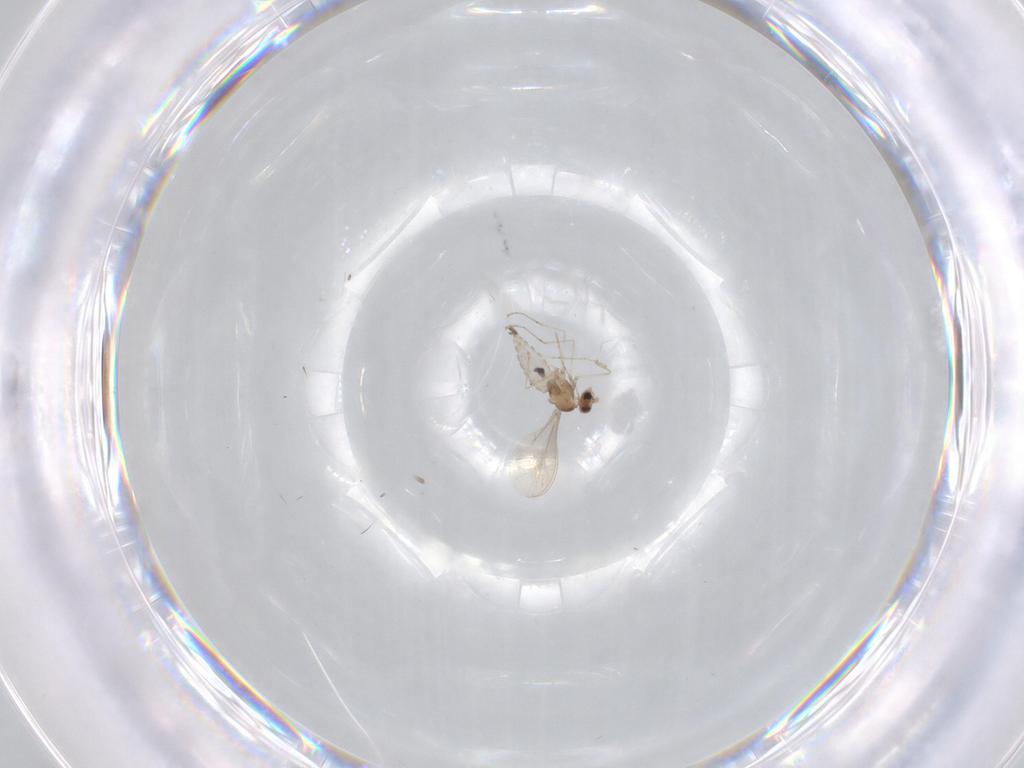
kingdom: Animalia
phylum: Arthropoda
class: Insecta
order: Diptera
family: Cecidomyiidae
